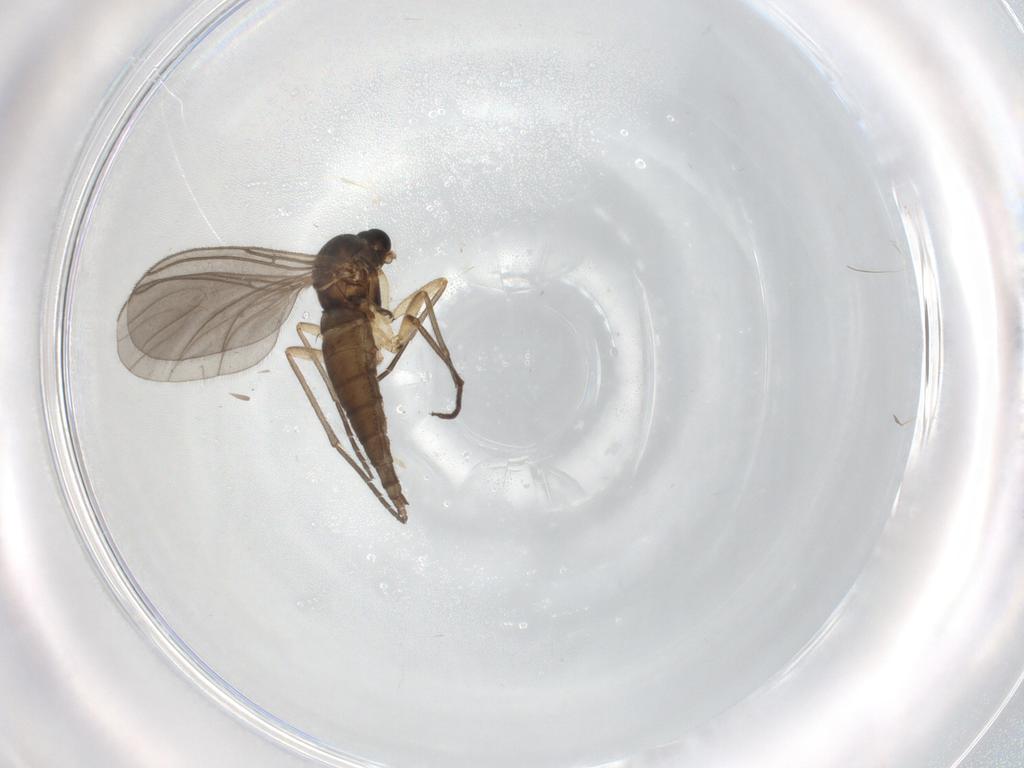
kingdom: Animalia
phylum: Arthropoda
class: Insecta
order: Diptera
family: Sciaridae
